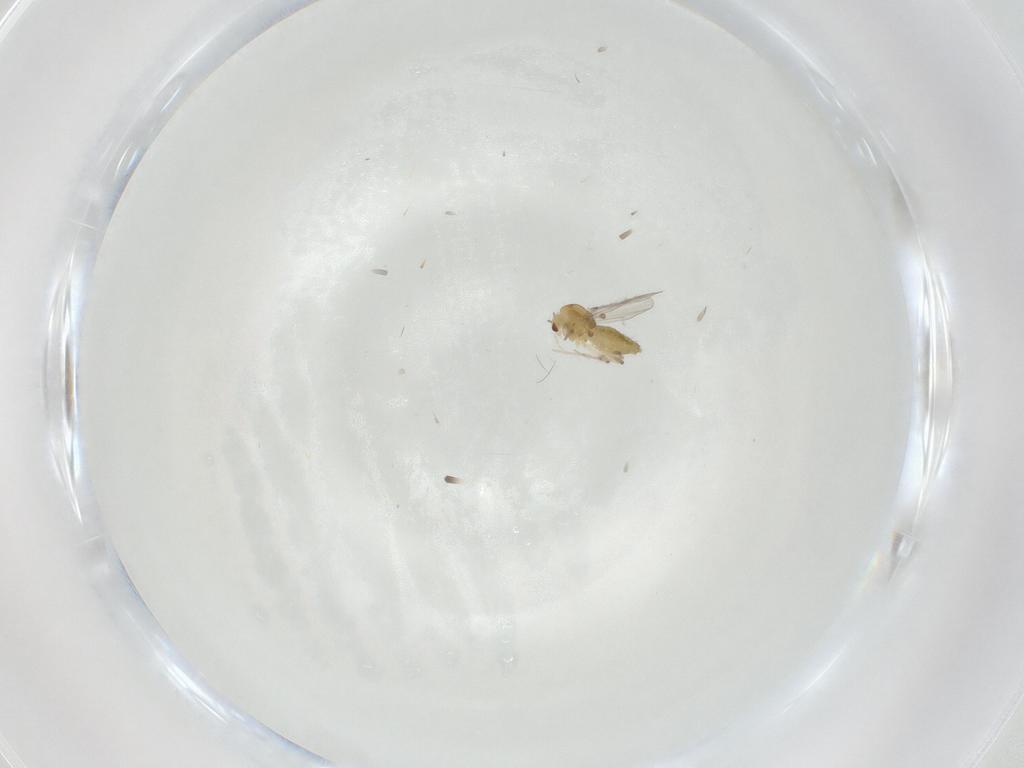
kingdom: Animalia
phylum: Arthropoda
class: Insecta
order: Diptera
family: Chironomidae
